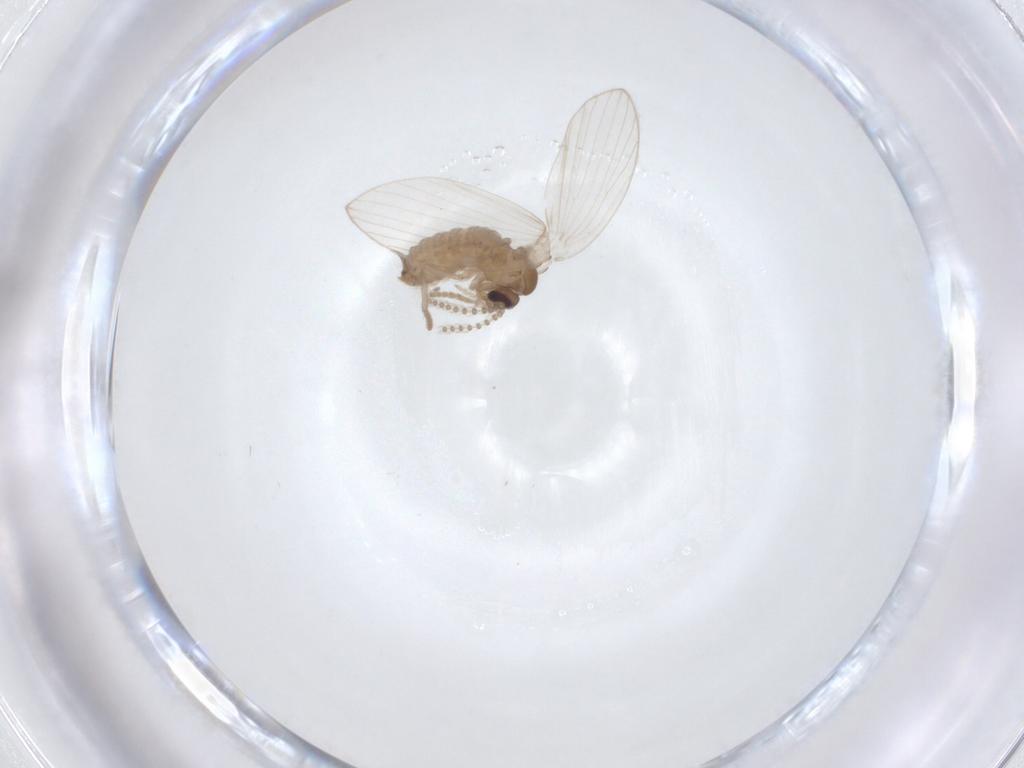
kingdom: Animalia
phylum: Arthropoda
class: Insecta
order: Diptera
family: Psychodidae
